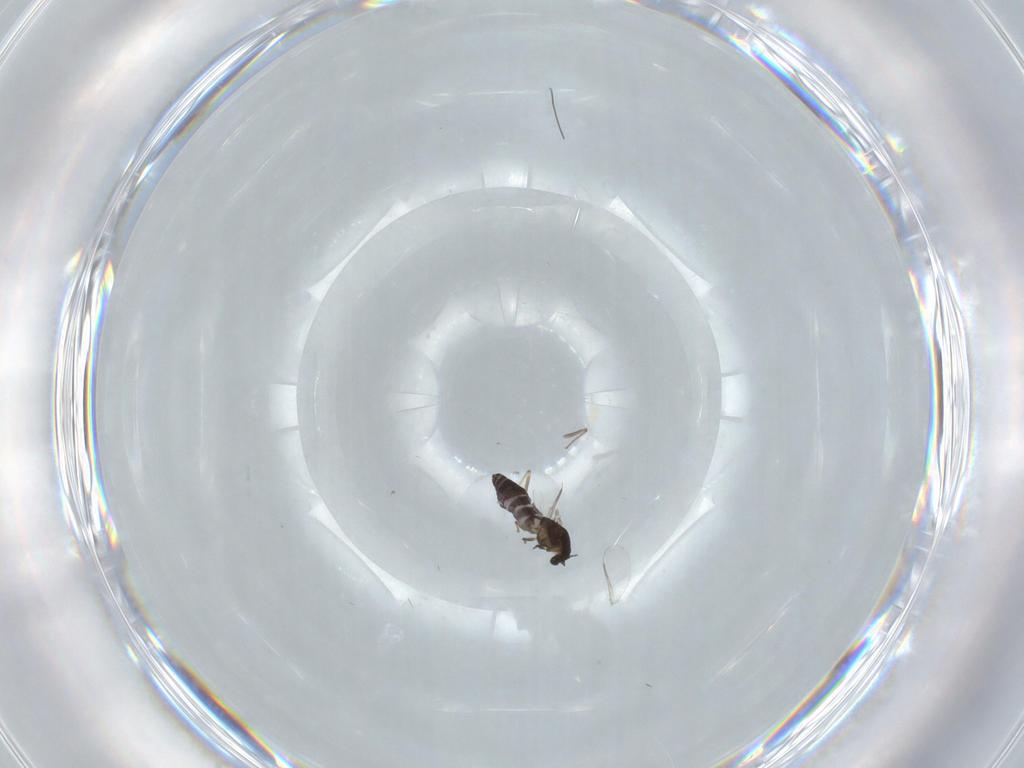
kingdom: Animalia
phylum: Arthropoda
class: Insecta
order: Diptera
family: Chironomidae
